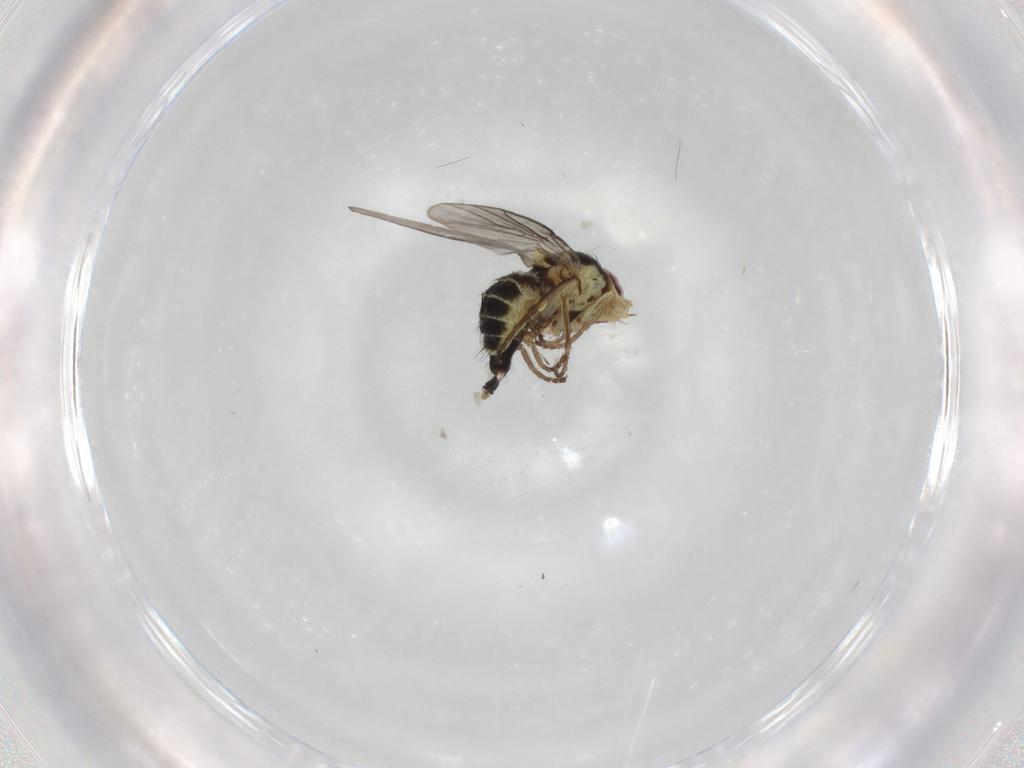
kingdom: Animalia
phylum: Arthropoda
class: Insecta
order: Diptera
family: Agromyzidae
